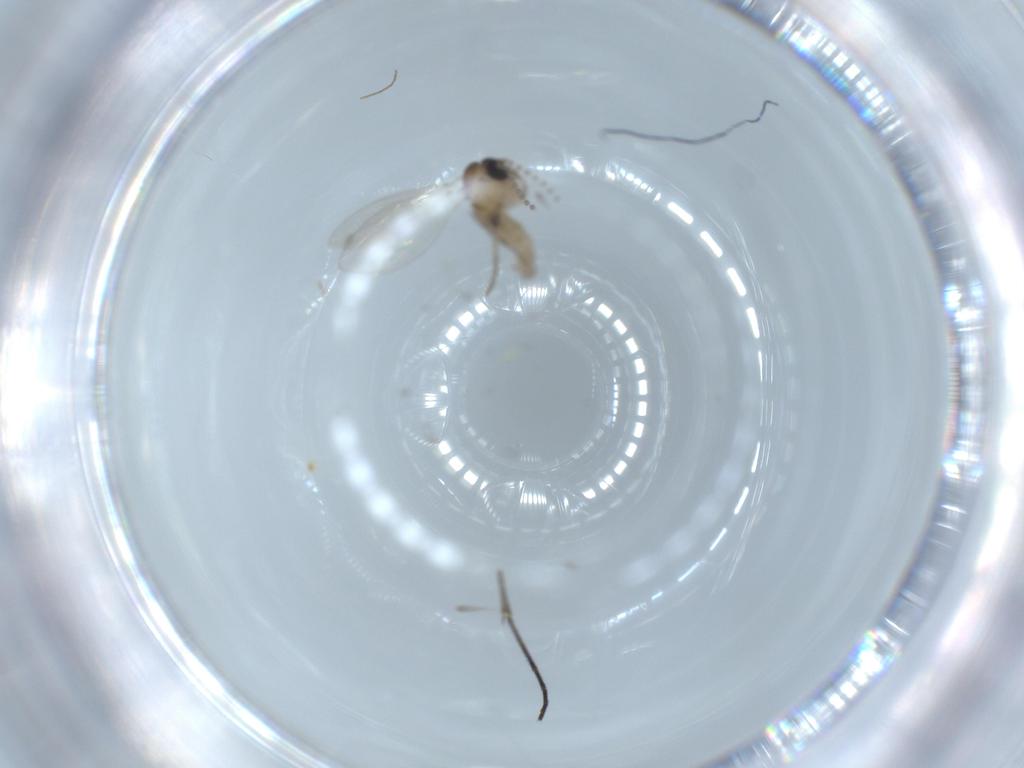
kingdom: Animalia
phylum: Arthropoda
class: Insecta
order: Diptera
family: Psychodidae
